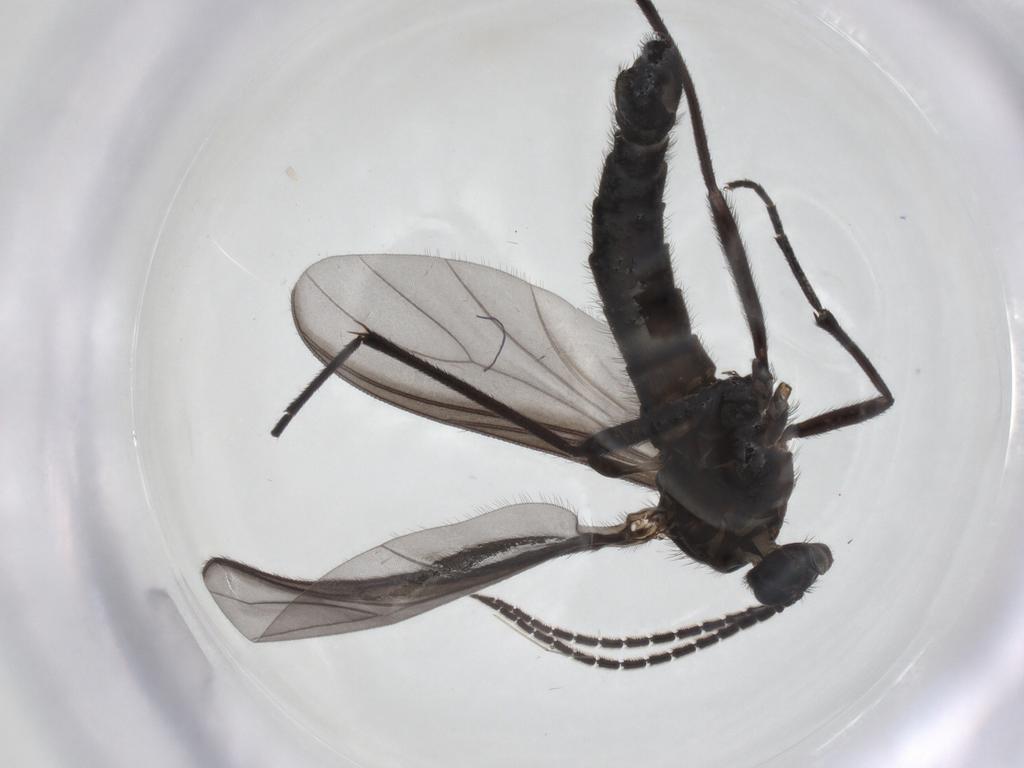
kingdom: Animalia
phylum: Arthropoda
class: Insecta
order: Diptera
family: Sciaridae
